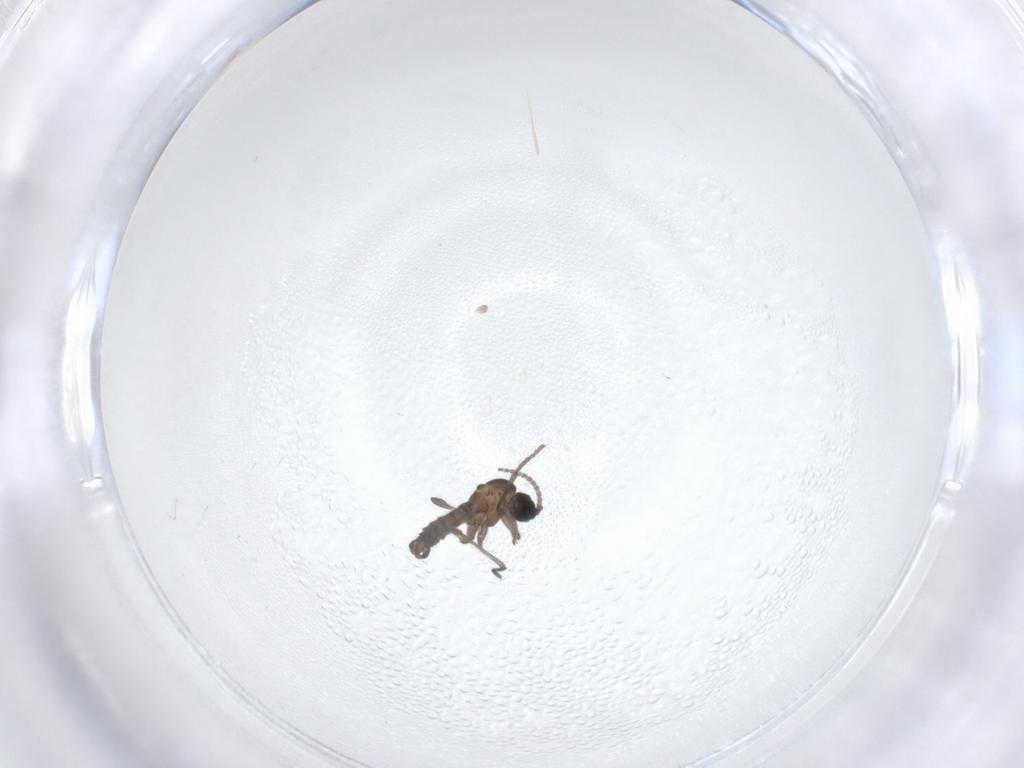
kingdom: Animalia
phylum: Arthropoda
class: Insecta
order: Diptera
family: Sciaridae
